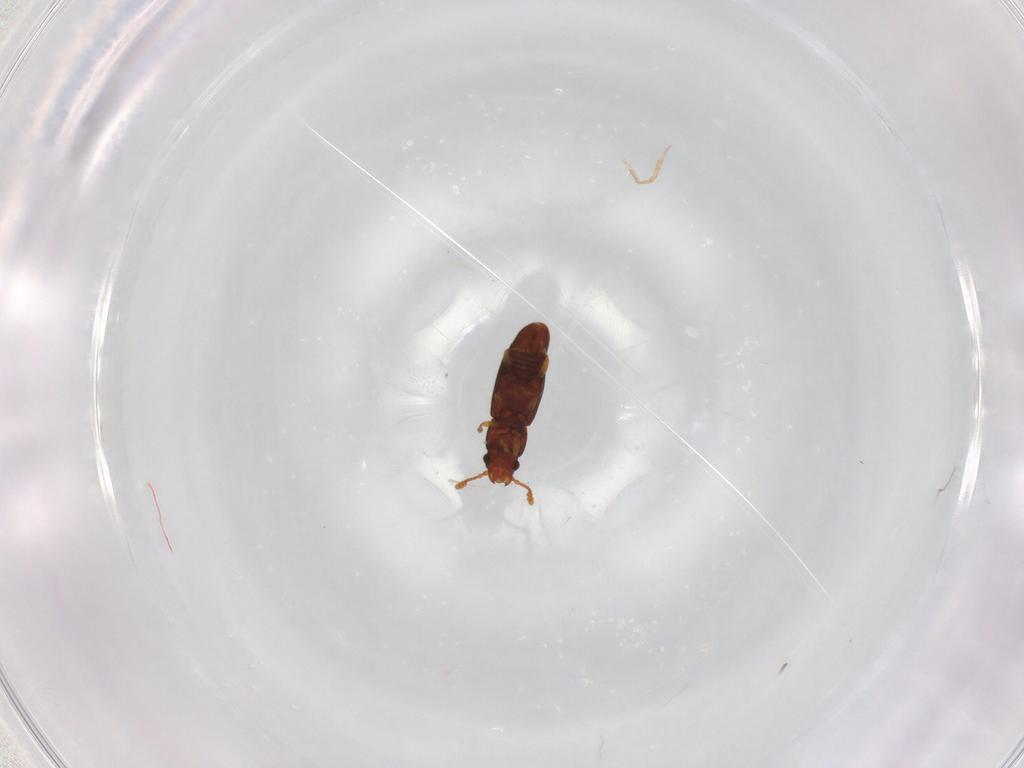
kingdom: Animalia
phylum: Arthropoda
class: Insecta
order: Coleoptera
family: Smicripidae
